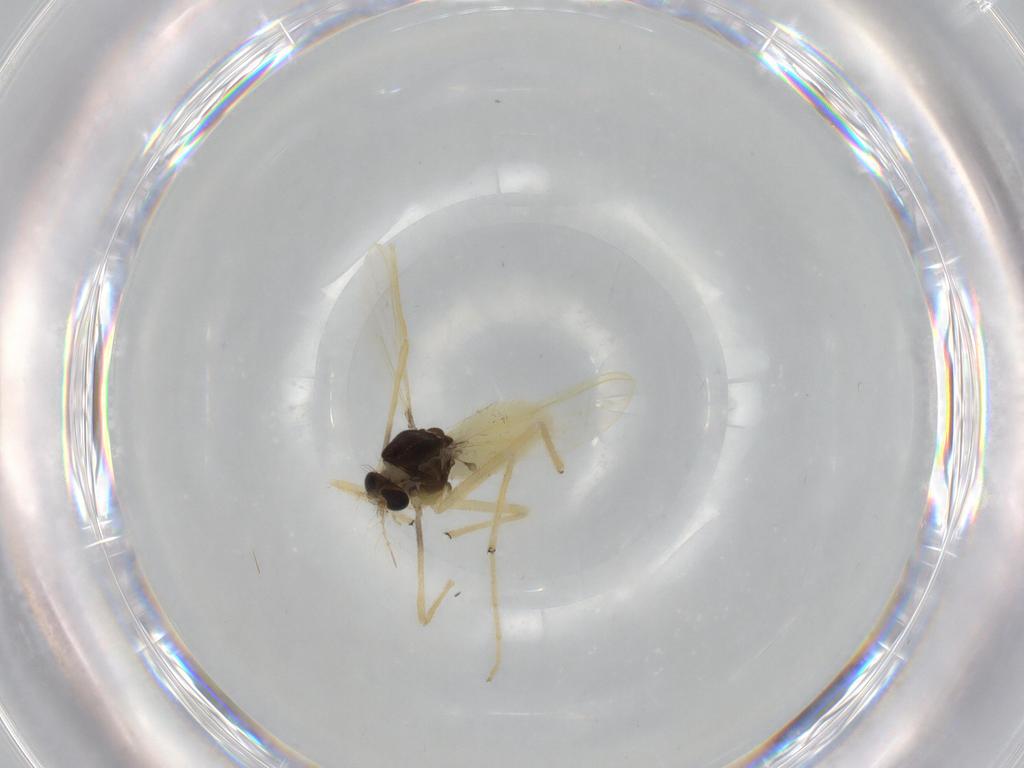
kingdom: Animalia
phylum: Arthropoda
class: Insecta
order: Diptera
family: Chironomidae
